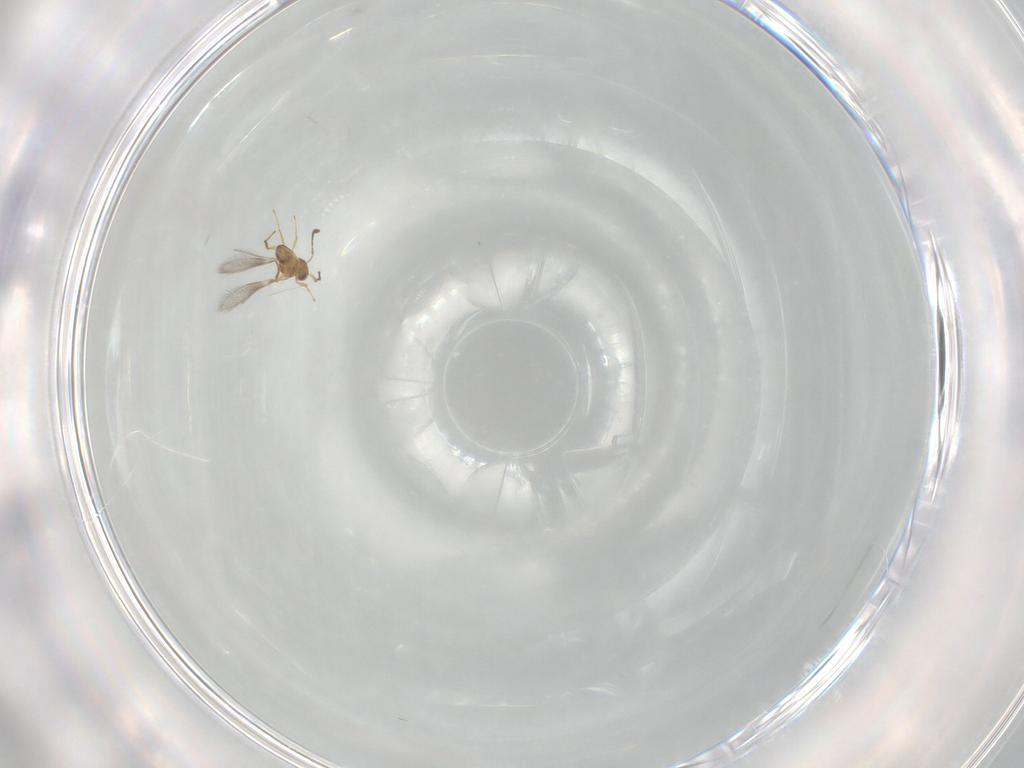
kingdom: Animalia
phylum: Arthropoda
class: Insecta
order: Hymenoptera
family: Mymaridae
